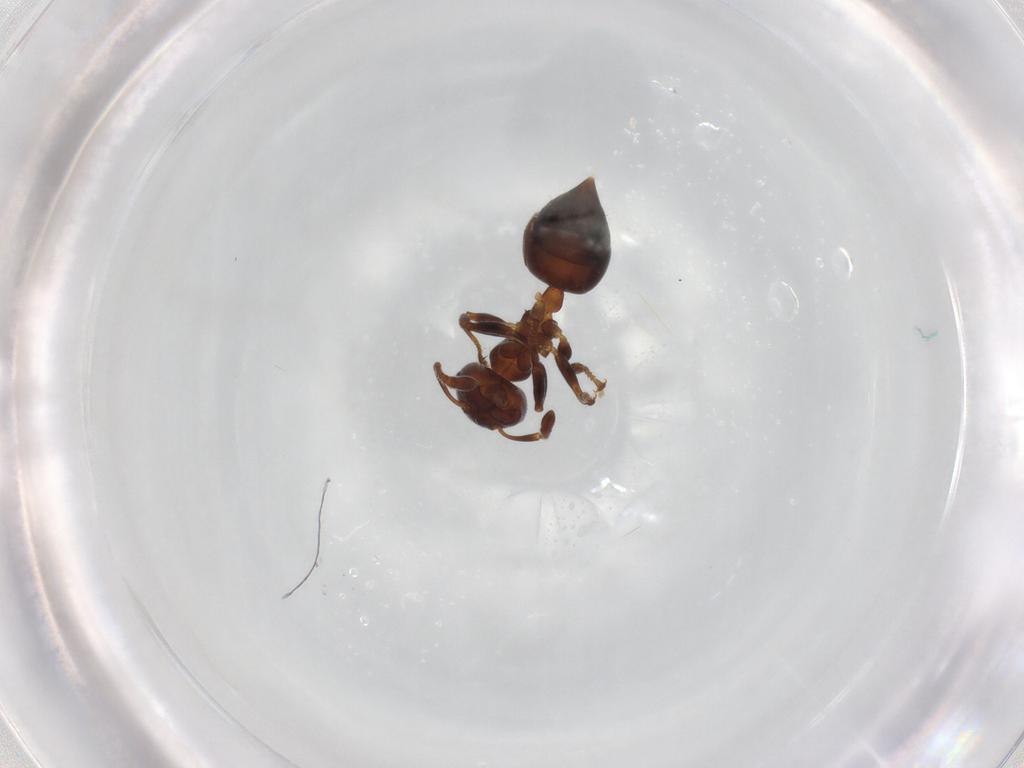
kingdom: Animalia
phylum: Arthropoda
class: Insecta
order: Hymenoptera
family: Formicidae
